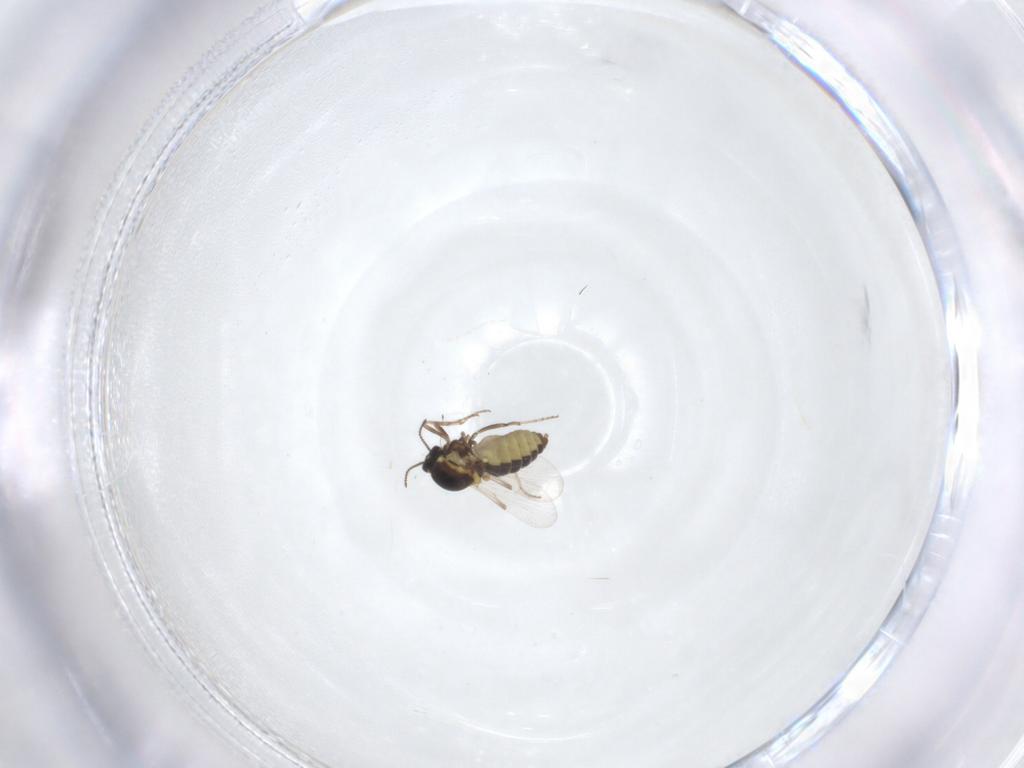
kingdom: Animalia
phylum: Arthropoda
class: Insecta
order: Diptera
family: Ceratopogonidae
